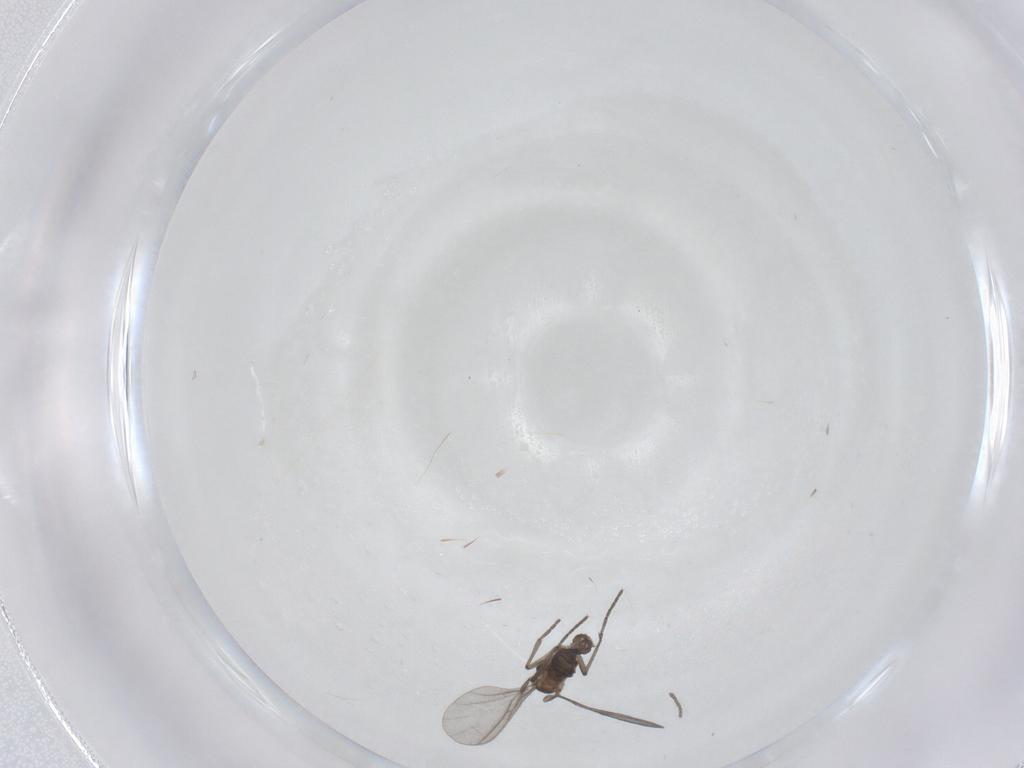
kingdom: Animalia
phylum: Arthropoda
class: Insecta
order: Diptera
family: Sciaridae
